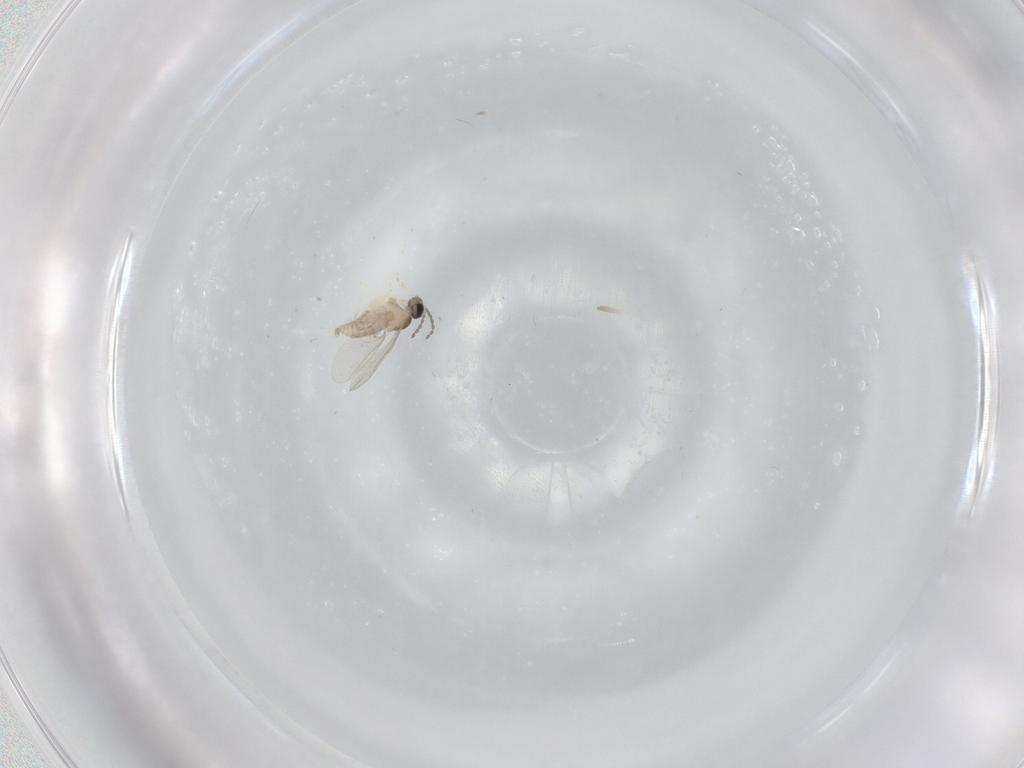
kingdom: Animalia
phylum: Arthropoda
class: Insecta
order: Diptera
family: Cecidomyiidae
